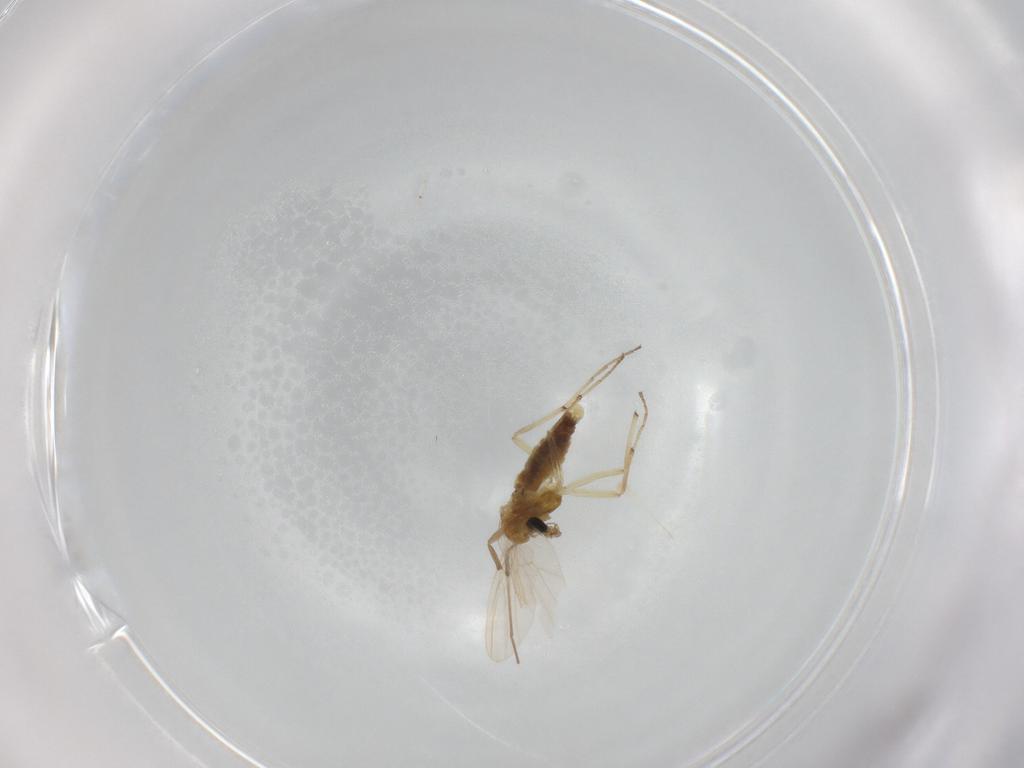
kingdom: Animalia
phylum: Arthropoda
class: Insecta
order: Diptera
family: Chironomidae
